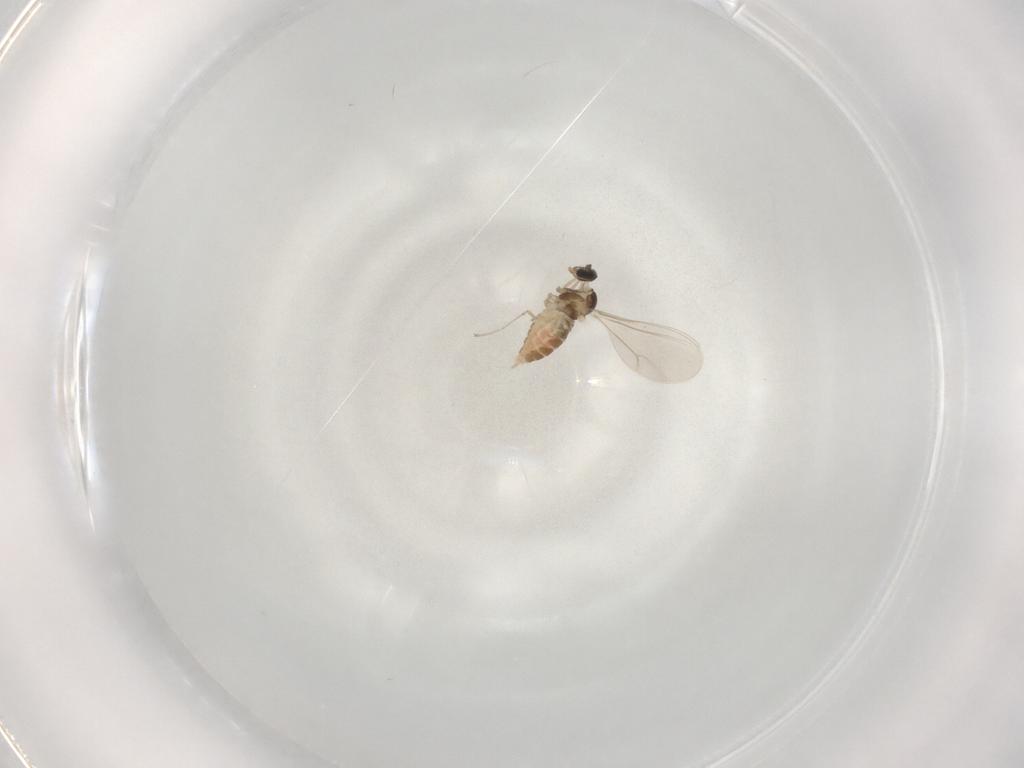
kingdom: Animalia
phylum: Arthropoda
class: Insecta
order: Diptera
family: Cecidomyiidae
